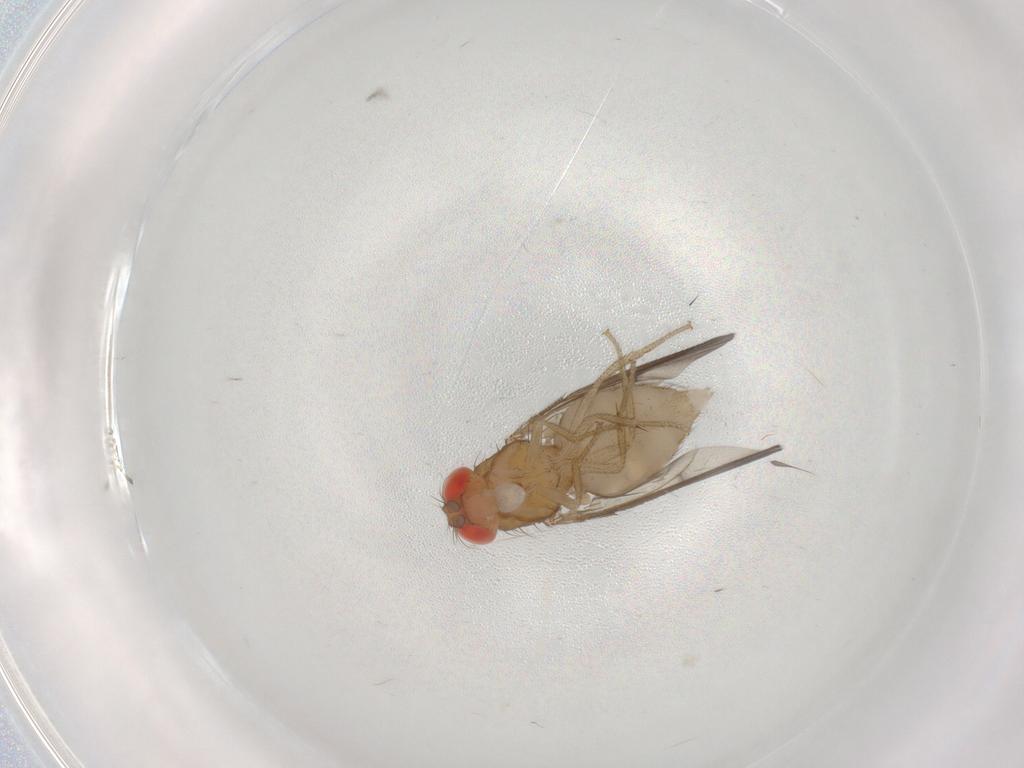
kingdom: Animalia
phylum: Arthropoda
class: Insecta
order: Diptera
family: Drosophilidae
